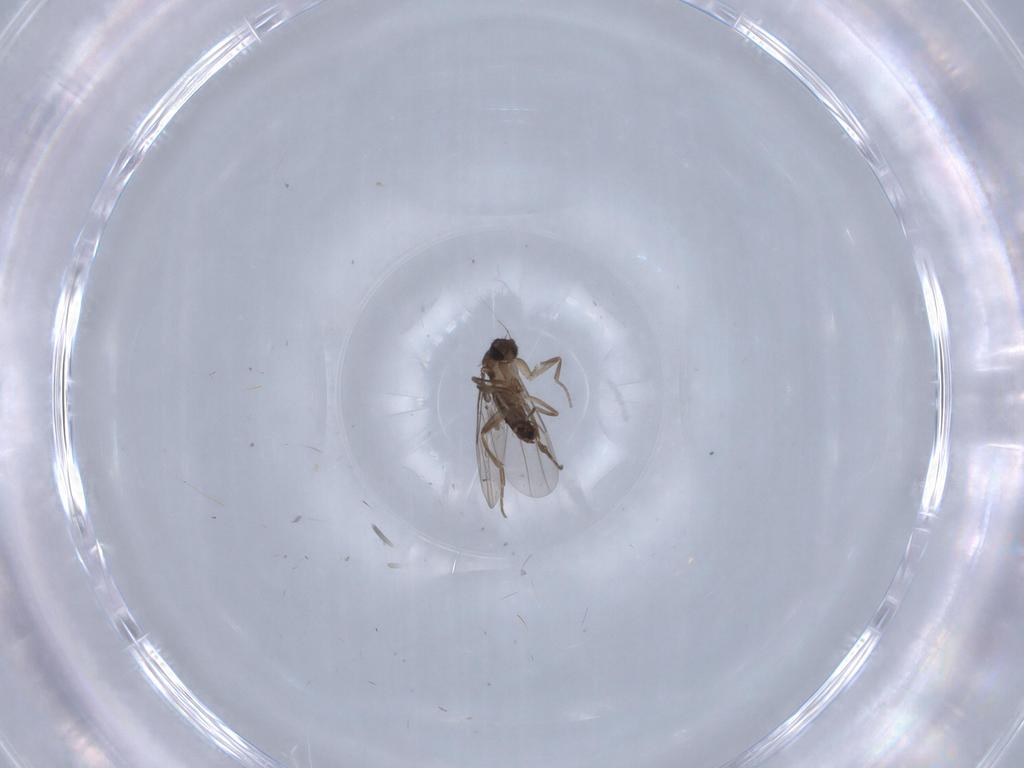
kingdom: Animalia
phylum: Arthropoda
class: Insecta
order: Diptera
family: Phoridae
